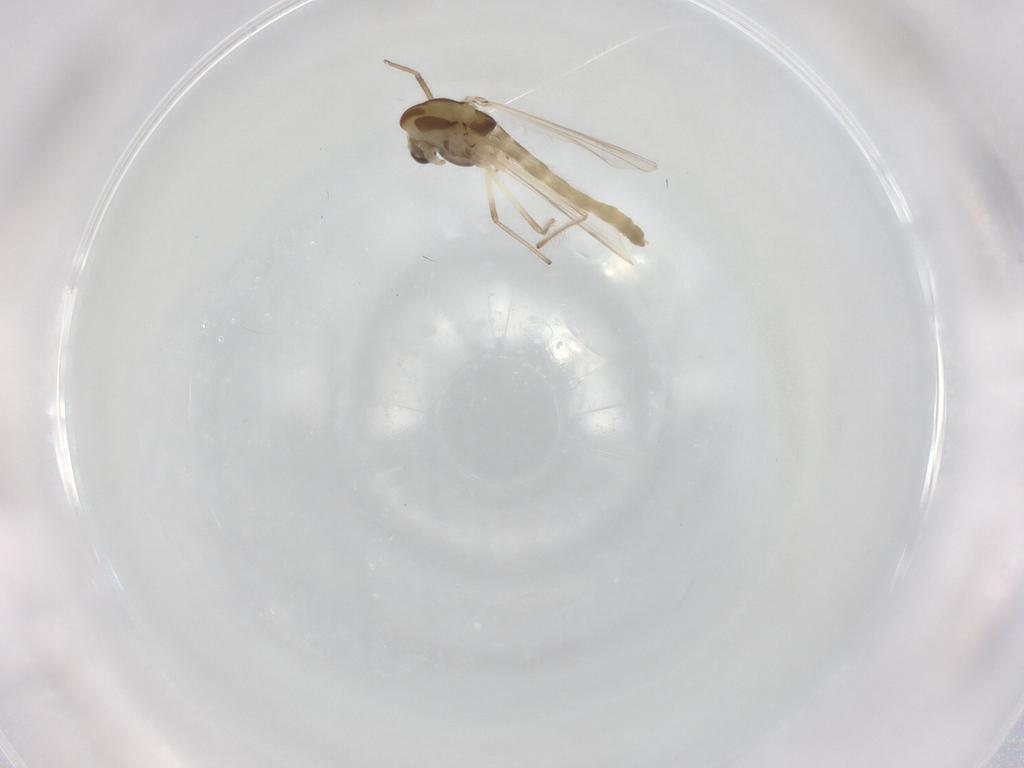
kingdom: Animalia
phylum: Arthropoda
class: Insecta
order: Diptera
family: Chironomidae
